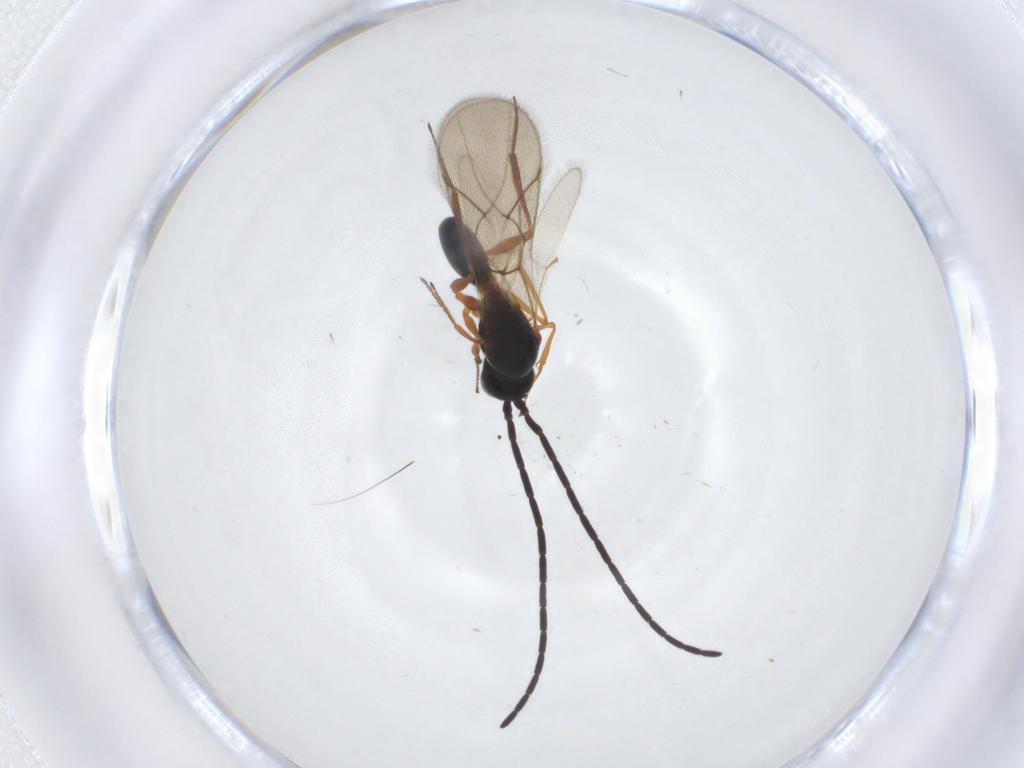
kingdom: Animalia
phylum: Arthropoda
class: Insecta
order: Hymenoptera
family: Figitidae
